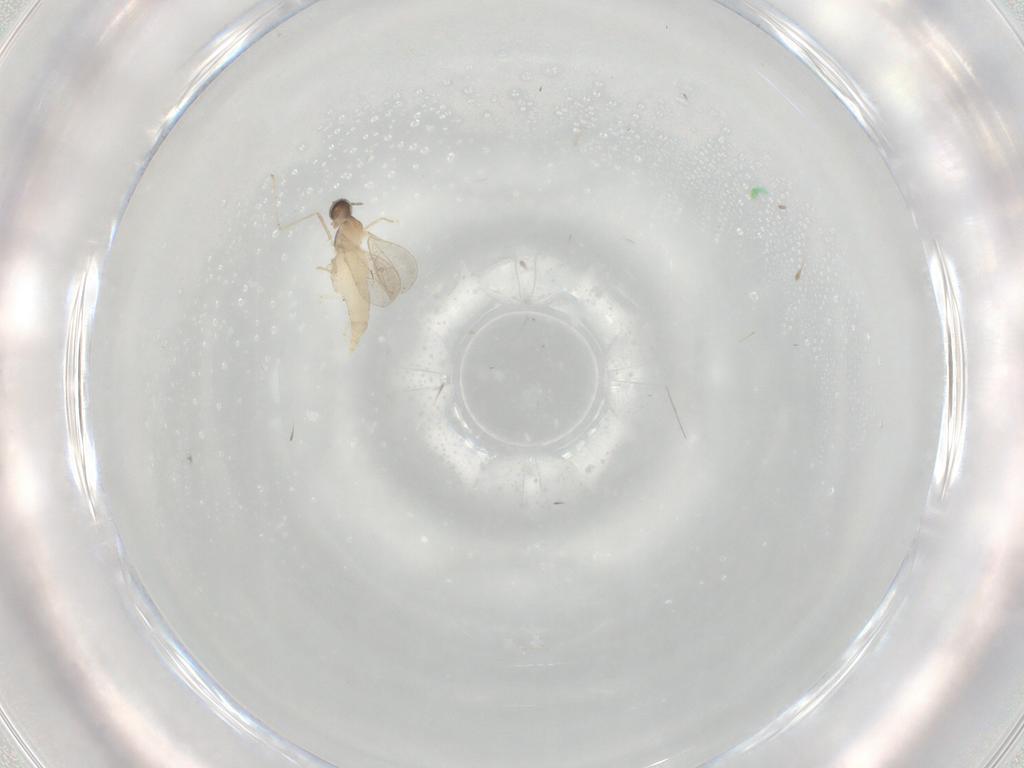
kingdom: Animalia
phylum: Arthropoda
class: Insecta
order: Diptera
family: Cecidomyiidae
